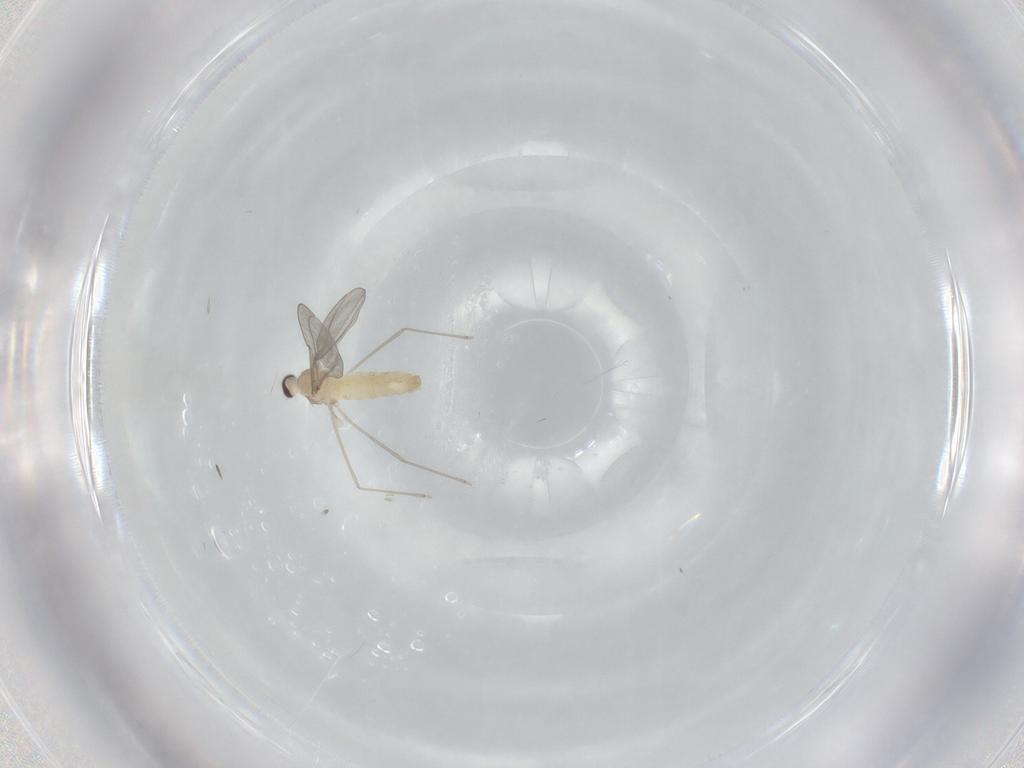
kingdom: Animalia
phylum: Arthropoda
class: Insecta
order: Diptera
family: Cecidomyiidae
